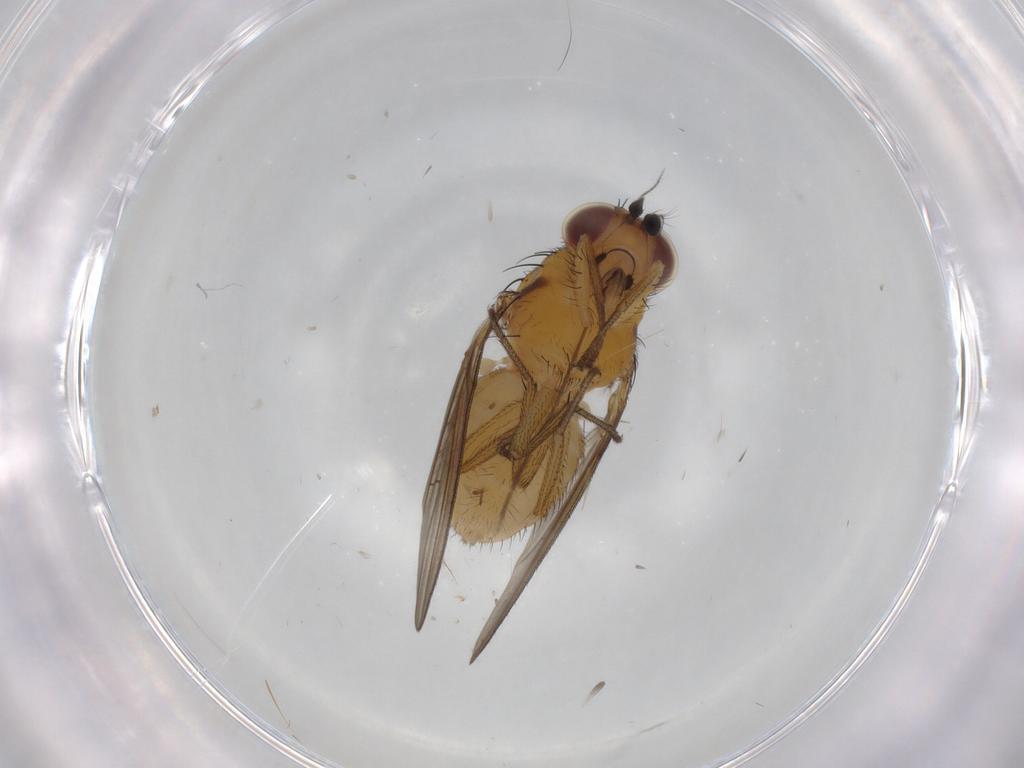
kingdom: Animalia
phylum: Arthropoda
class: Insecta
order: Diptera
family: Chironomidae
